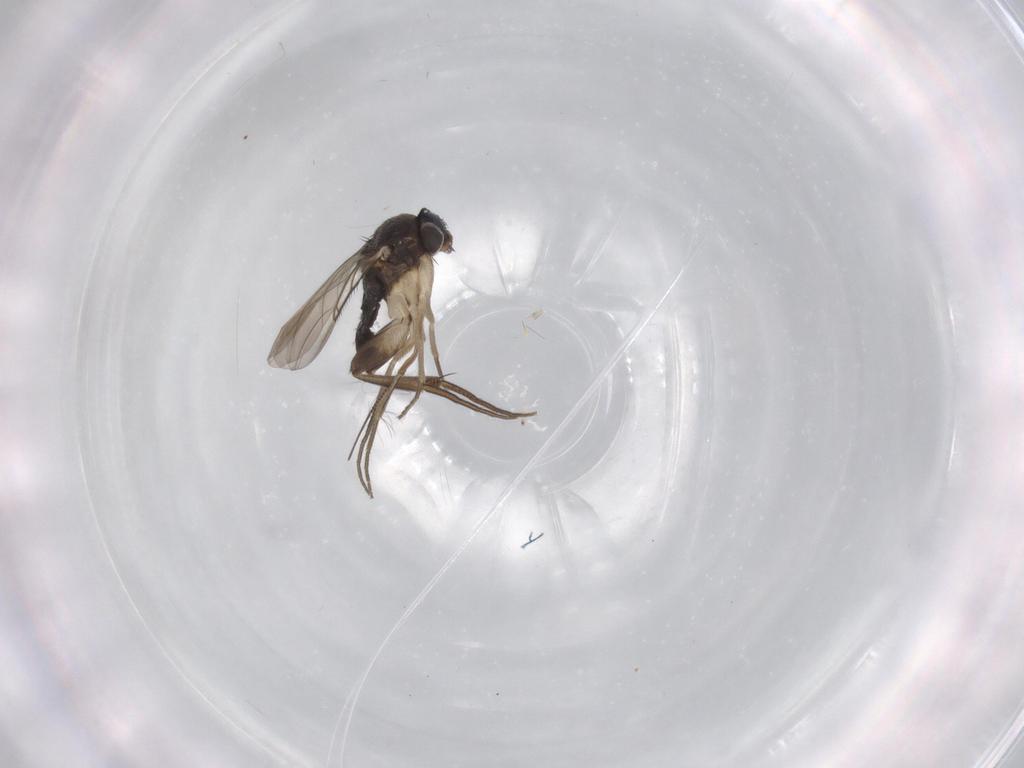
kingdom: Animalia
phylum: Arthropoda
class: Insecta
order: Diptera
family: Phoridae
